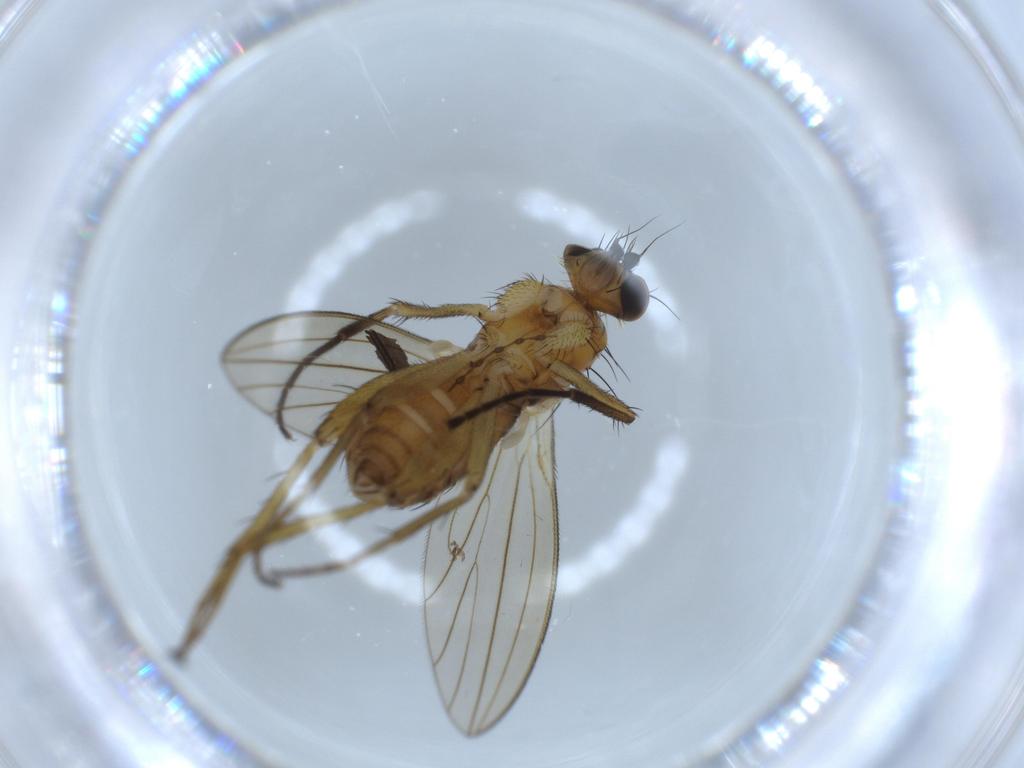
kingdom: Animalia
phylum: Arthropoda
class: Insecta
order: Diptera
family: Lonchopteridae
